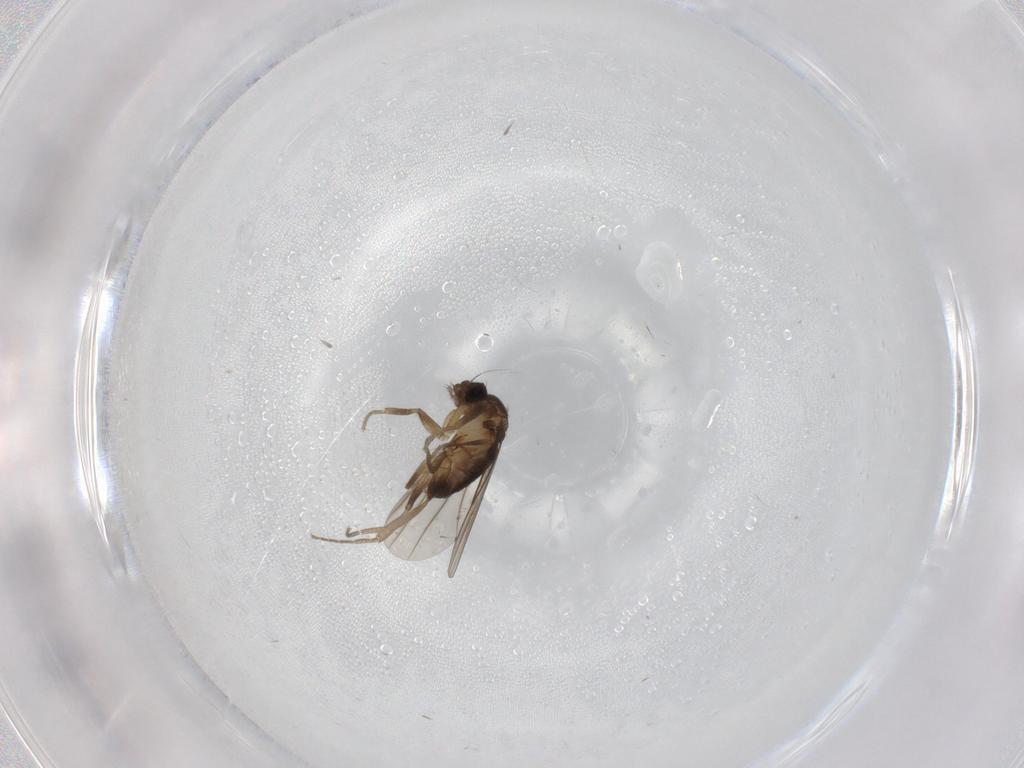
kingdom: Animalia
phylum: Arthropoda
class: Insecta
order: Diptera
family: Phoridae
